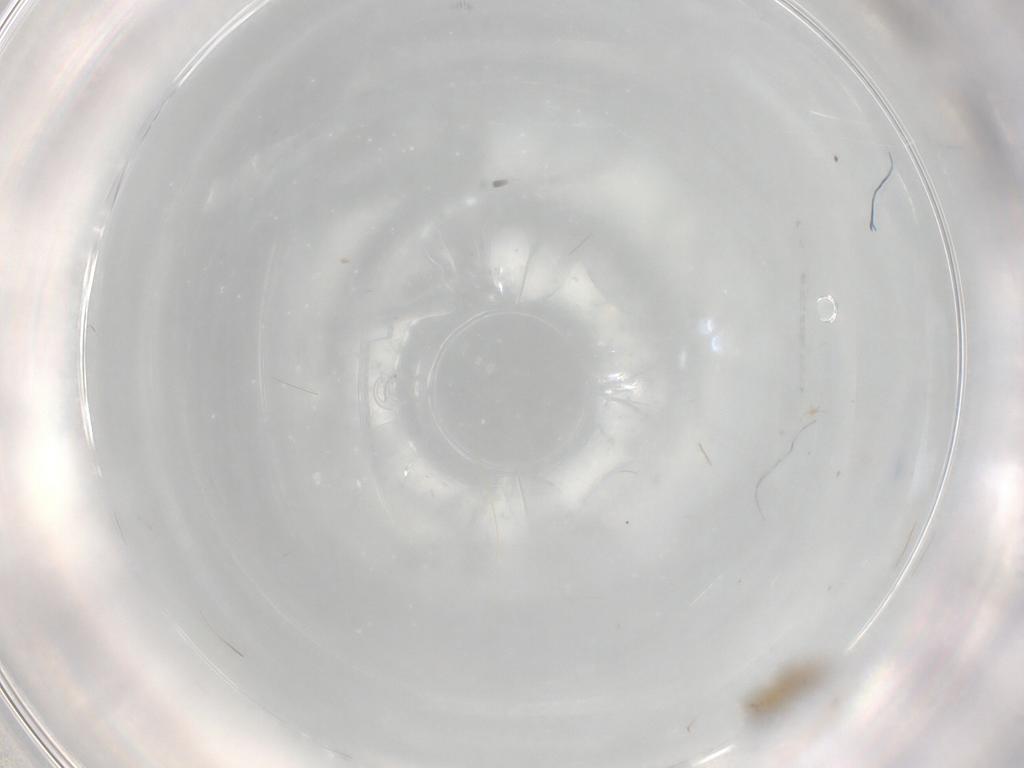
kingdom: Animalia
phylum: Arthropoda
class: Insecta
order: Hymenoptera
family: Mymaridae
